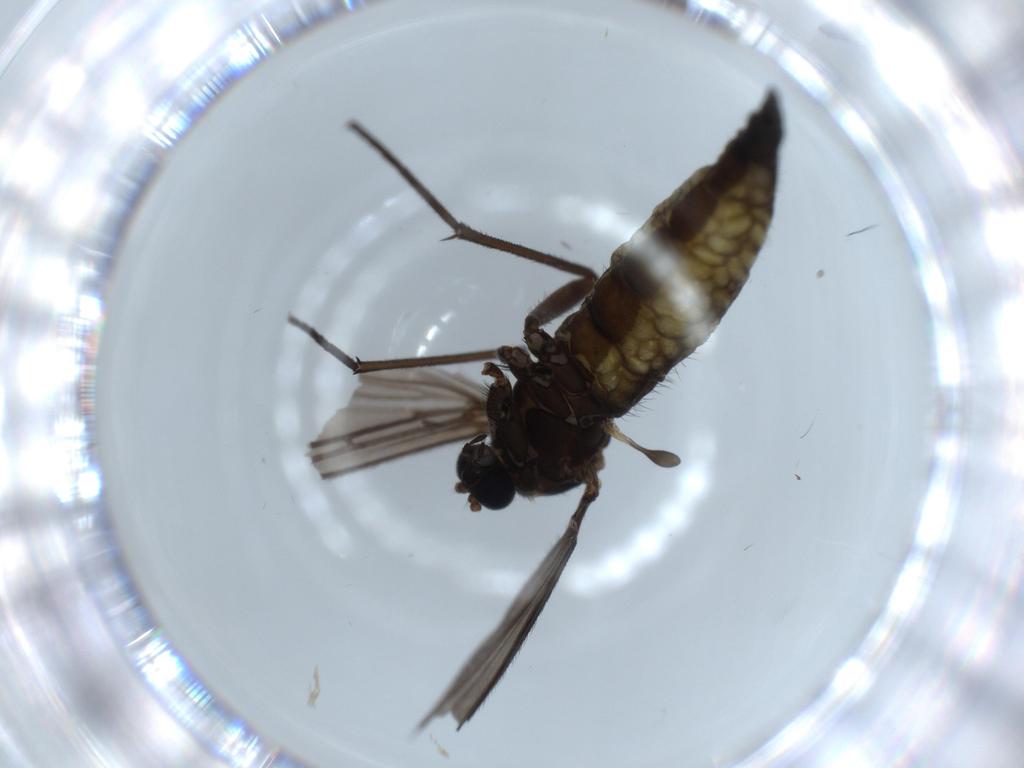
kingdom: Animalia
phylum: Arthropoda
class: Insecta
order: Diptera
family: Sciaridae
